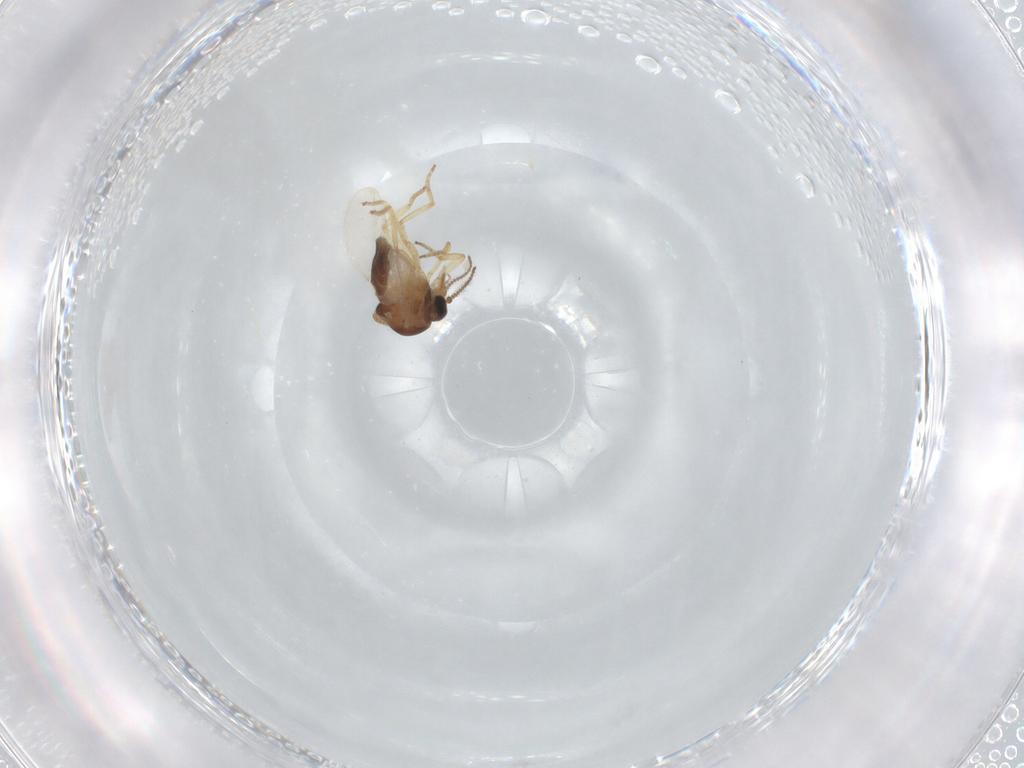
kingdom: Animalia
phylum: Arthropoda
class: Insecta
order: Diptera
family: Ceratopogonidae
